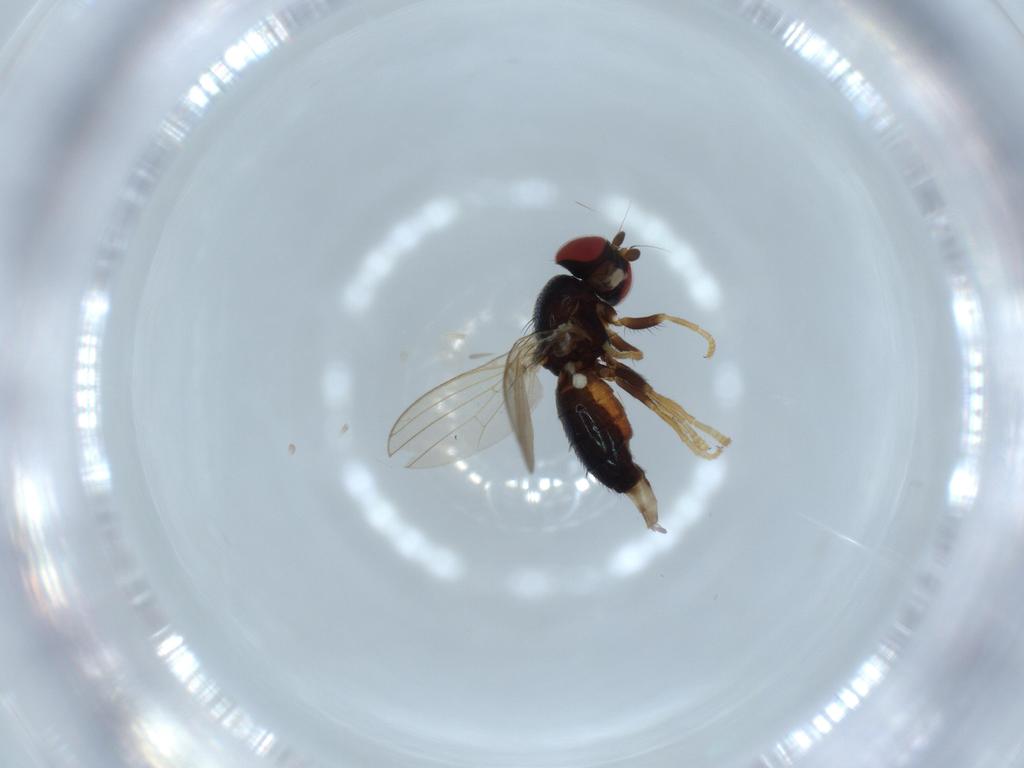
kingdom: Animalia
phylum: Arthropoda
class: Insecta
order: Diptera
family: Chamaemyiidae
